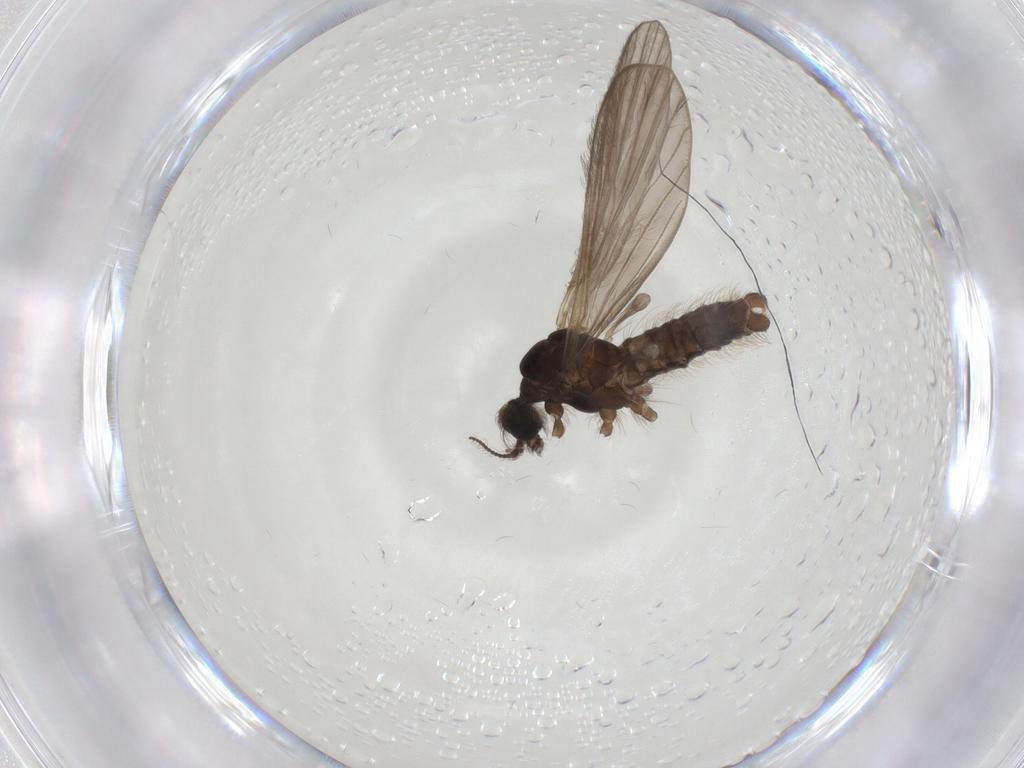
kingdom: Animalia
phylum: Arthropoda
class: Insecta
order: Diptera
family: Limoniidae
